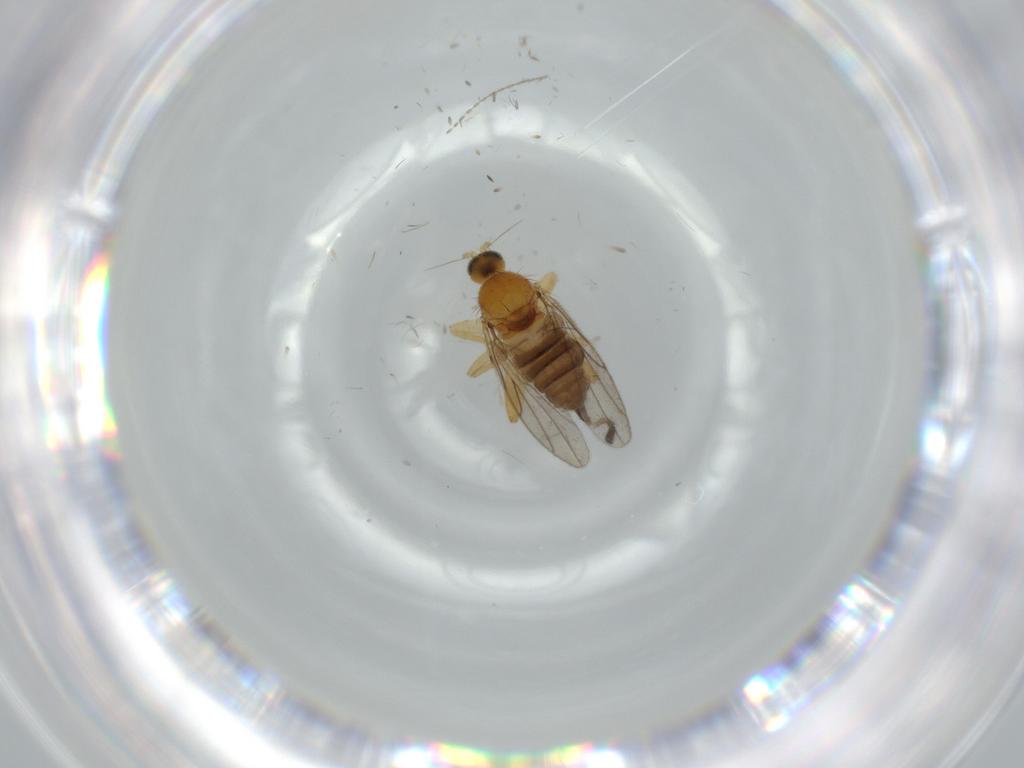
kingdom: Animalia
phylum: Arthropoda
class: Insecta
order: Diptera
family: Hybotidae
